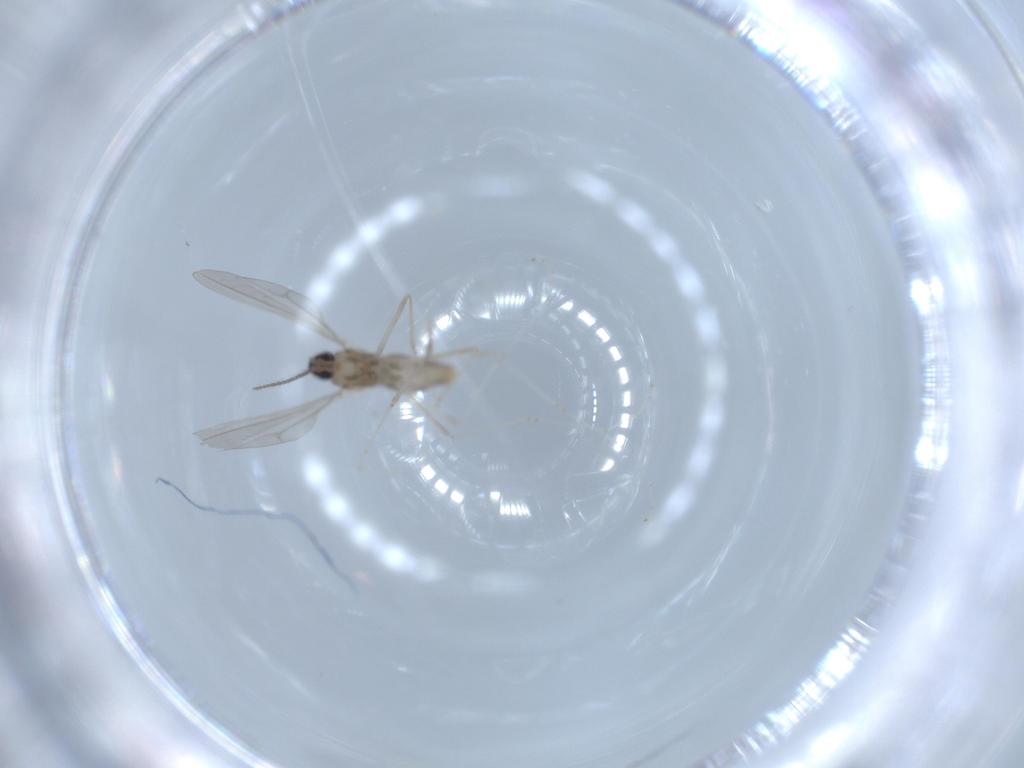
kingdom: Animalia
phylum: Arthropoda
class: Insecta
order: Diptera
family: Cecidomyiidae
